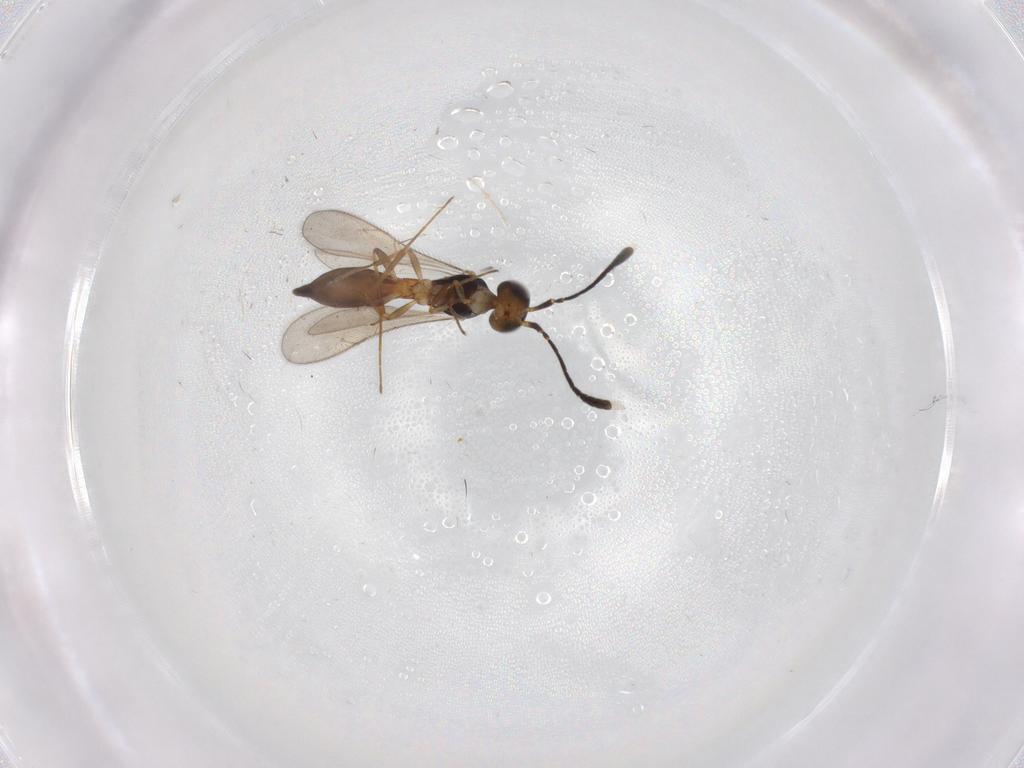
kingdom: Animalia
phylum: Arthropoda
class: Insecta
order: Hymenoptera
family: Scelionidae
